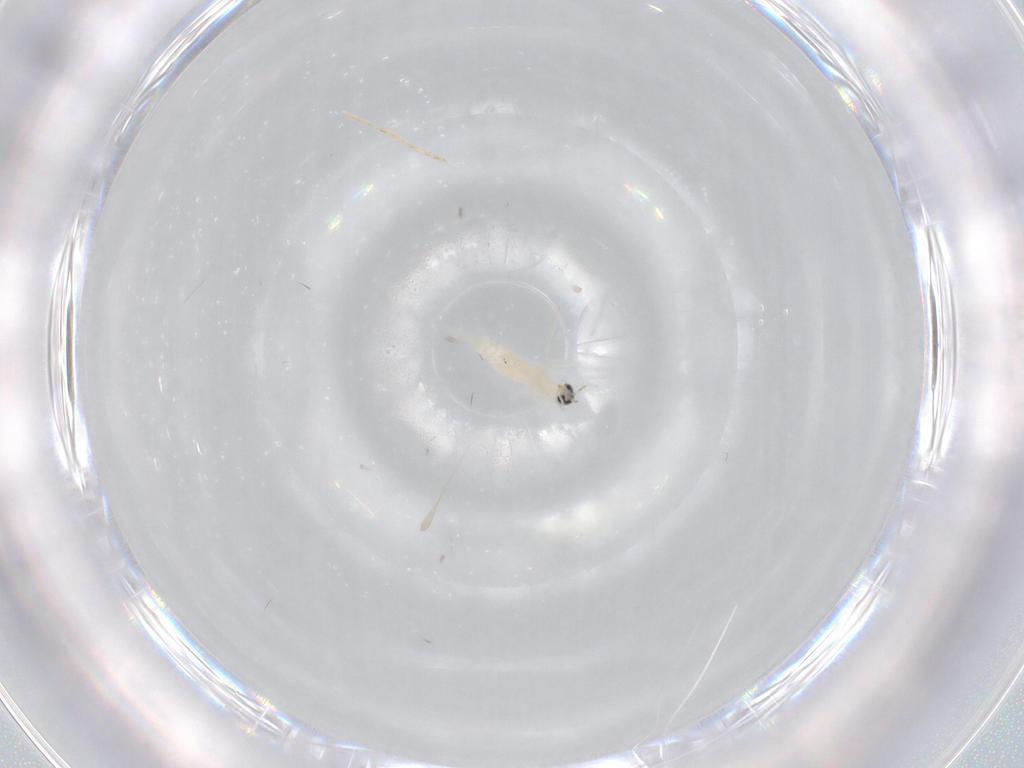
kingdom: Animalia
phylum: Arthropoda
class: Insecta
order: Diptera
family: Cecidomyiidae
